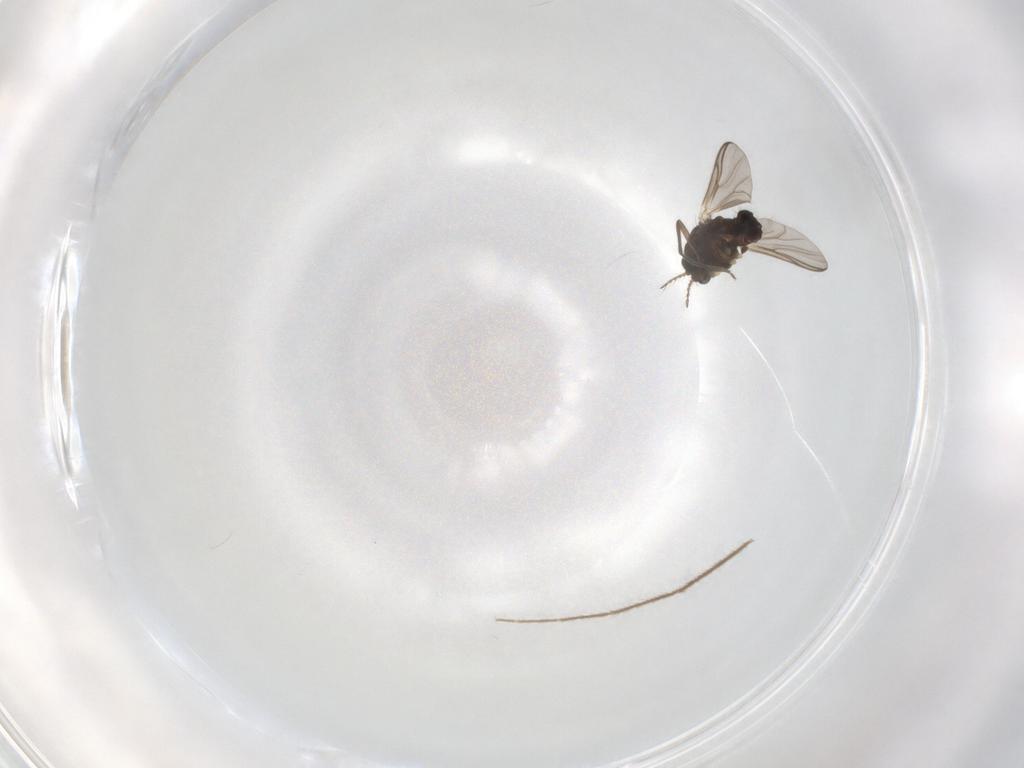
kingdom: Animalia
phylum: Arthropoda
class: Insecta
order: Diptera
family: Chironomidae
